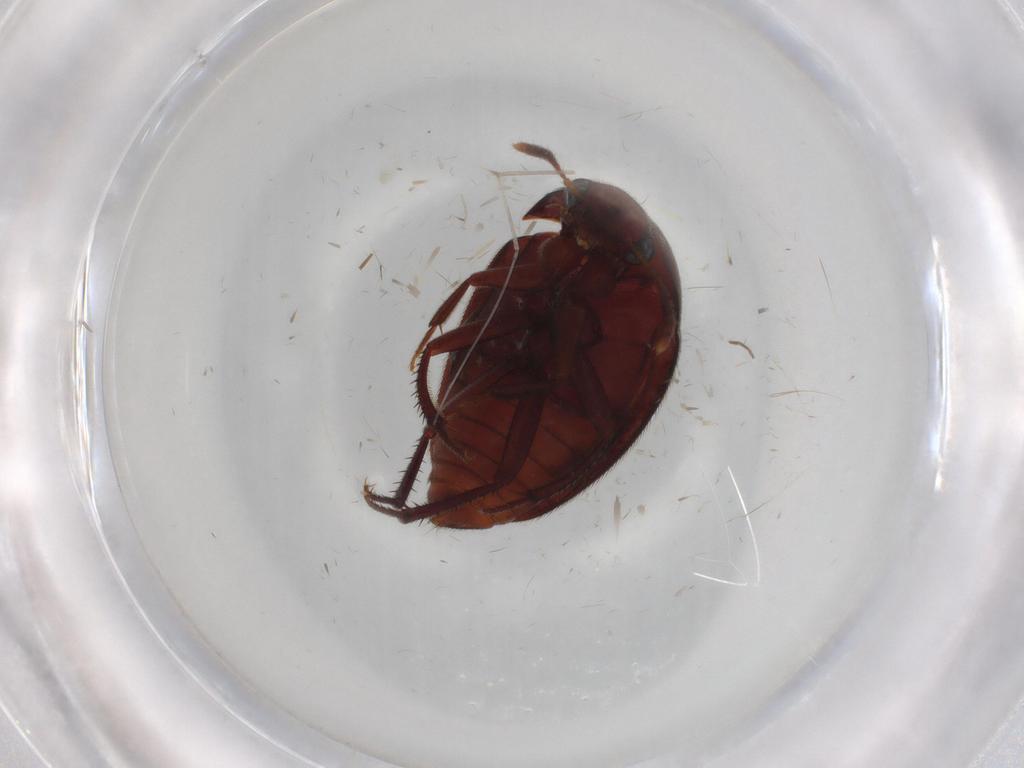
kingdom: Animalia
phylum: Arthropoda
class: Insecta
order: Coleoptera
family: Leiodidae
